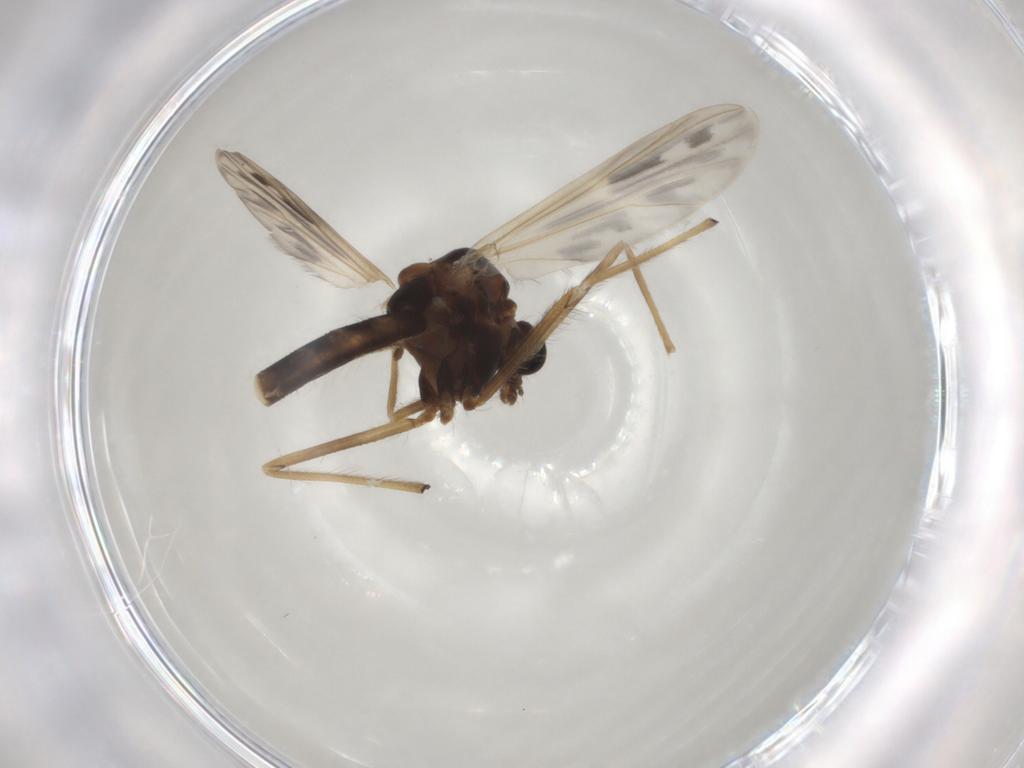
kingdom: Animalia
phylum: Arthropoda
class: Insecta
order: Diptera
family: Chironomidae
